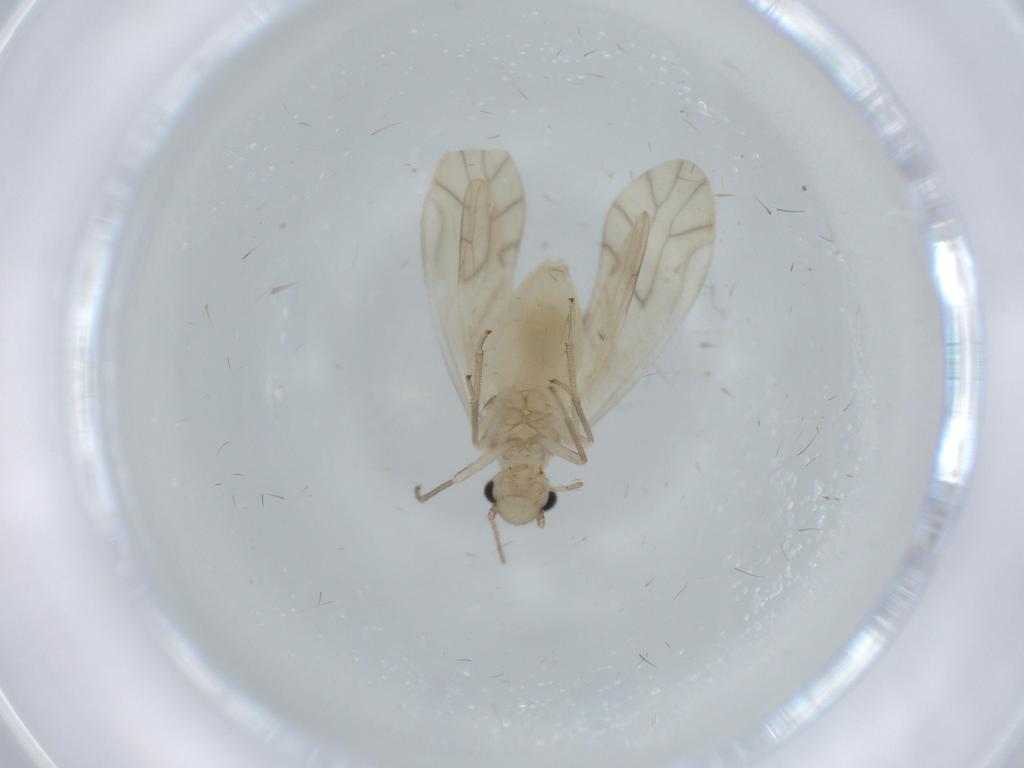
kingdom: Animalia
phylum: Arthropoda
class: Insecta
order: Psocodea
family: Caeciliusidae
